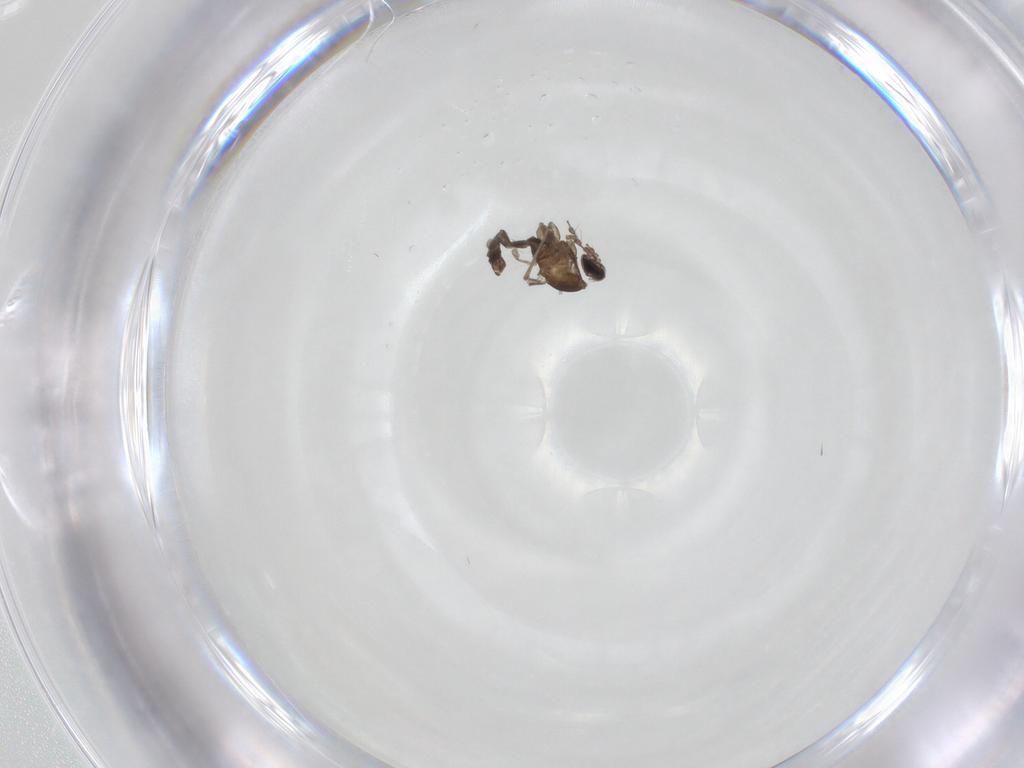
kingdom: Animalia
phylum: Arthropoda
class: Insecta
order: Diptera
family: Cecidomyiidae
